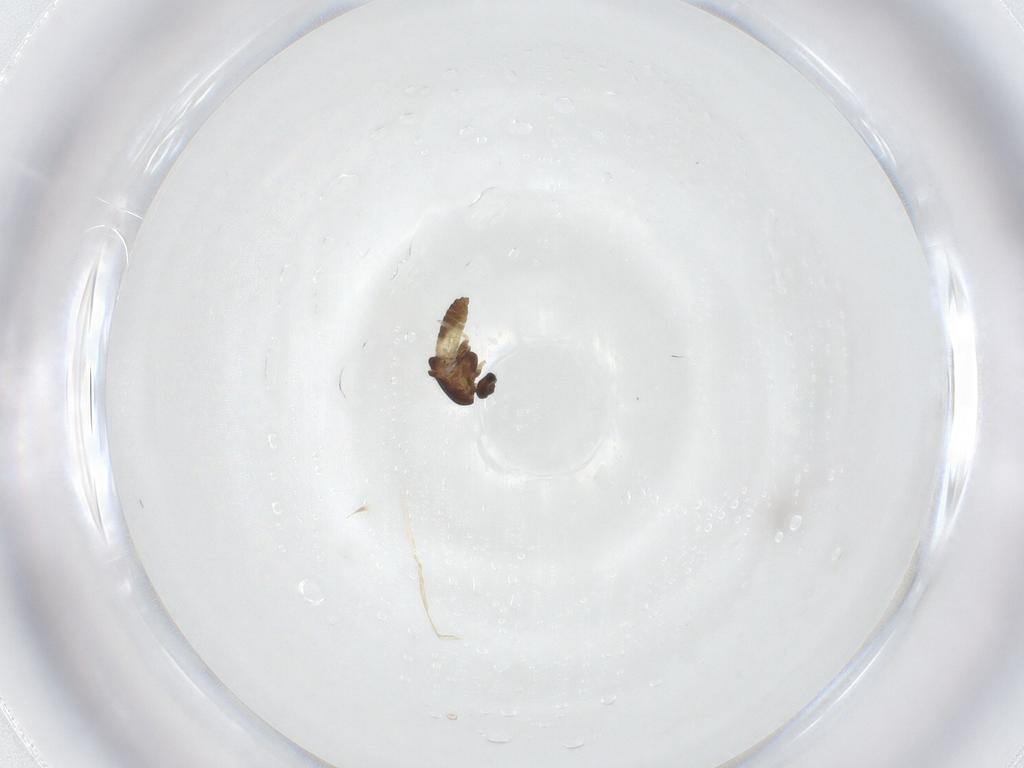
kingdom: Animalia
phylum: Arthropoda
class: Insecta
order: Diptera
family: Chironomidae
